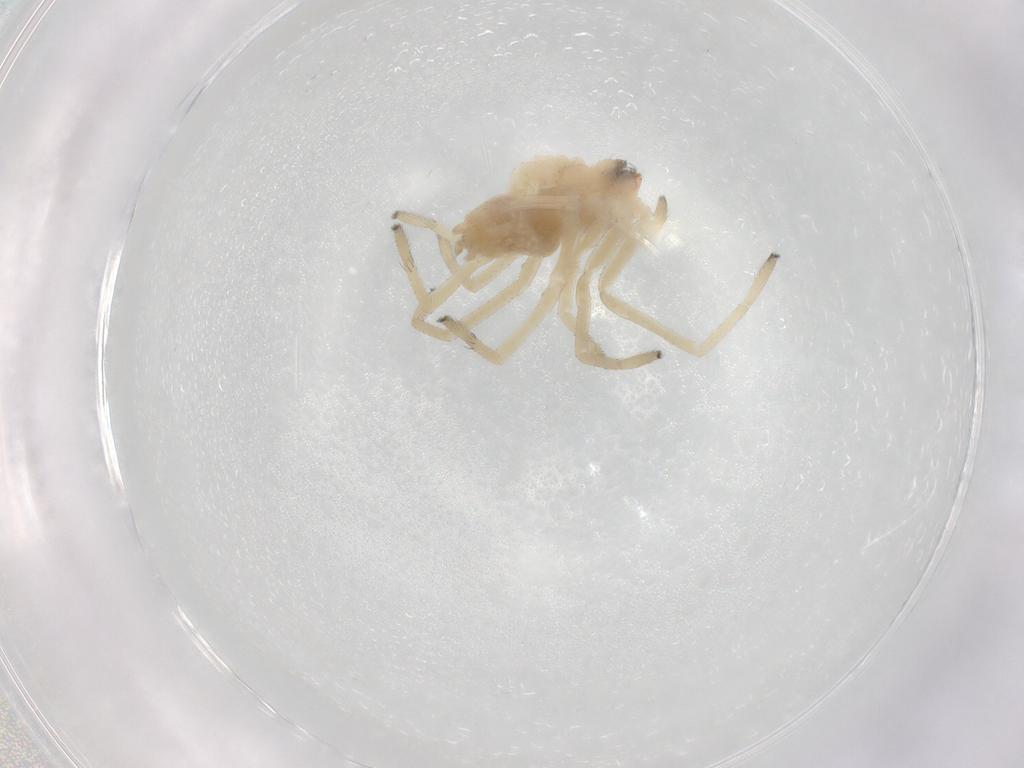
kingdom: Animalia
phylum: Arthropoda
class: Arachnida
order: Araneae
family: Cheiracanthiidae
